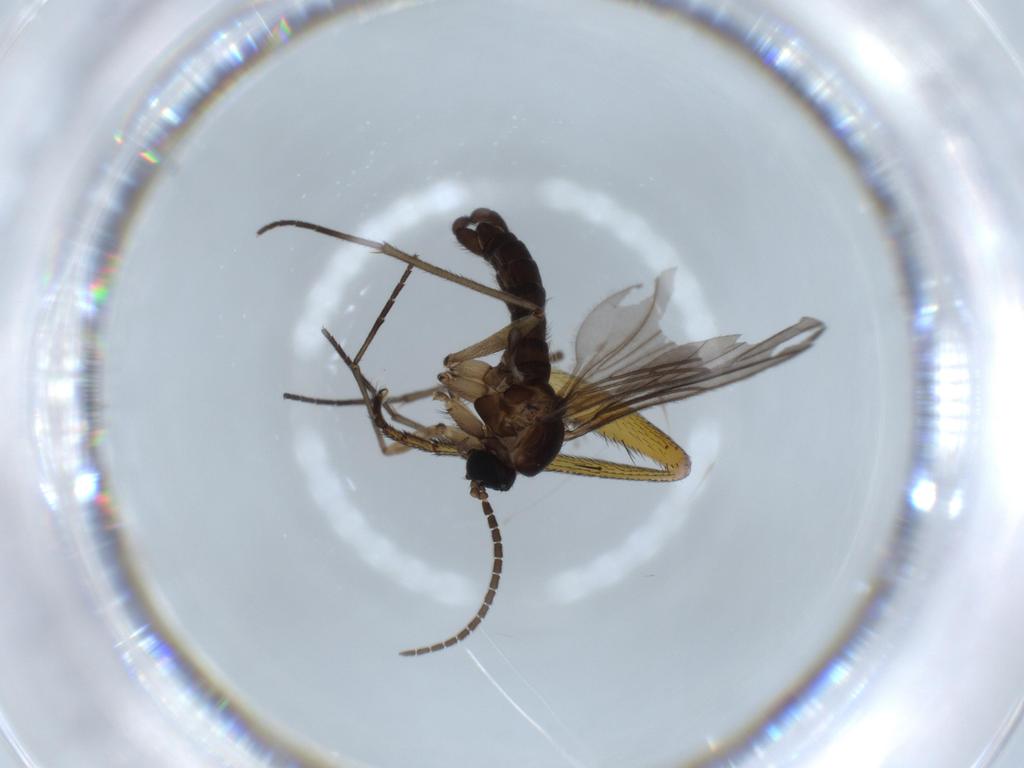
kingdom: Animalia
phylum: Arthropoda
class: Insecta
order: Diptera
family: Sciaridae
